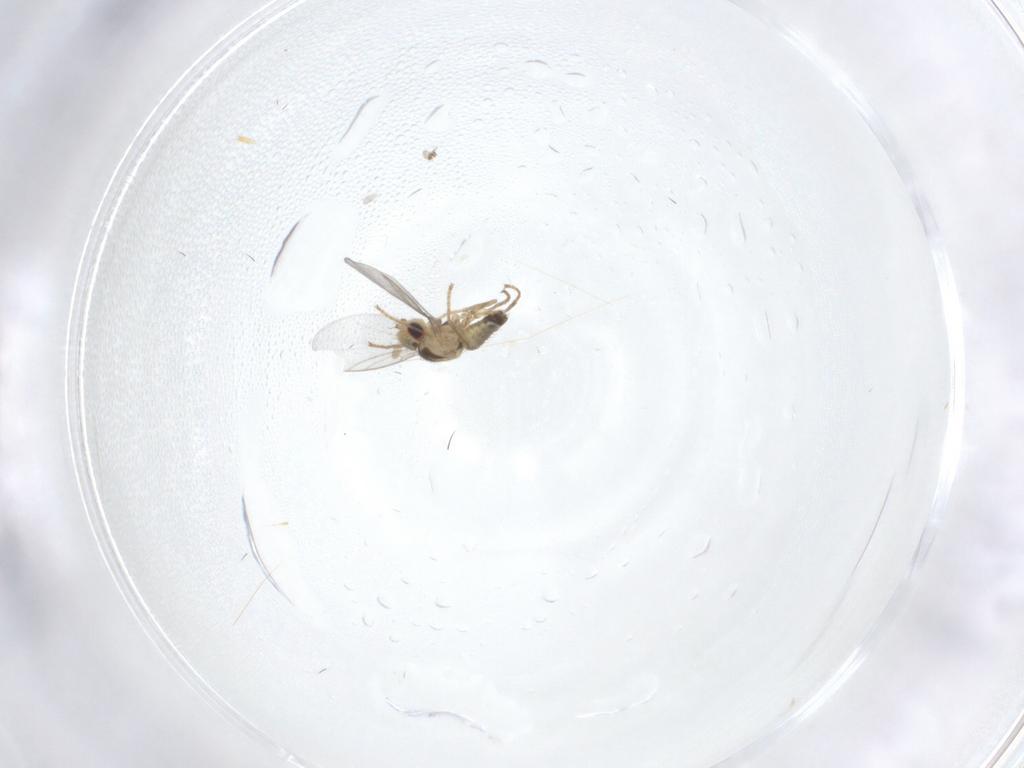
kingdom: Animalia
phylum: Arthropoda
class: Insecta
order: Diptera
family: Agromyzidae
